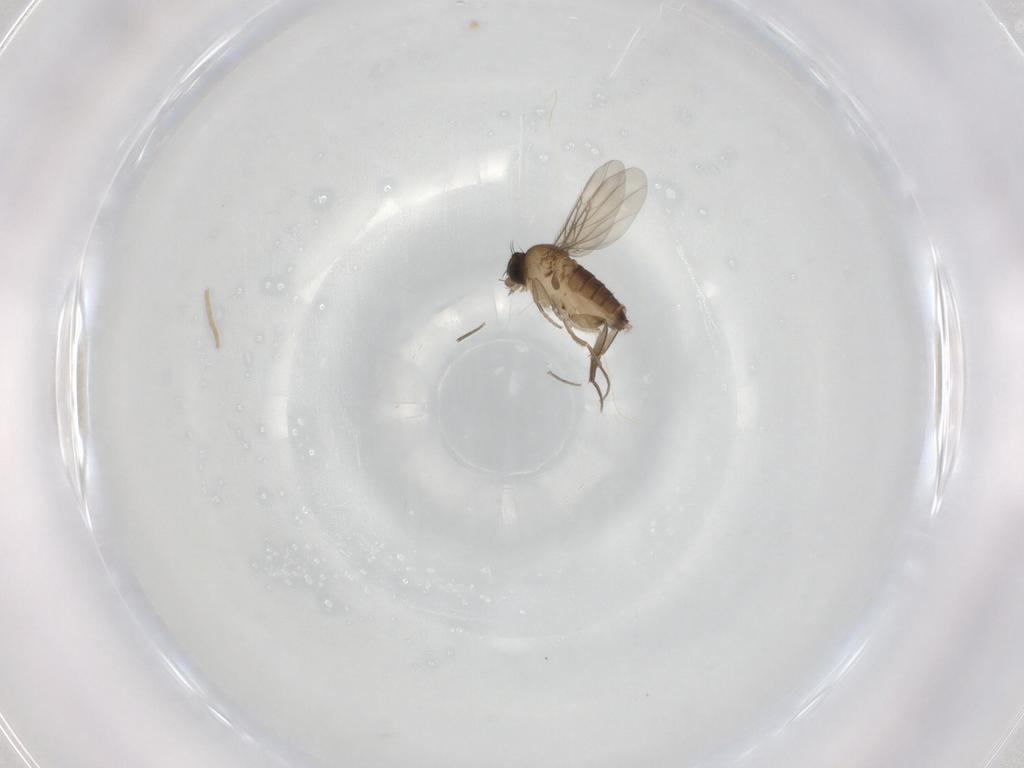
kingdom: Animalia
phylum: Arthropoda
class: Insecta
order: Diptera
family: Phoridae
